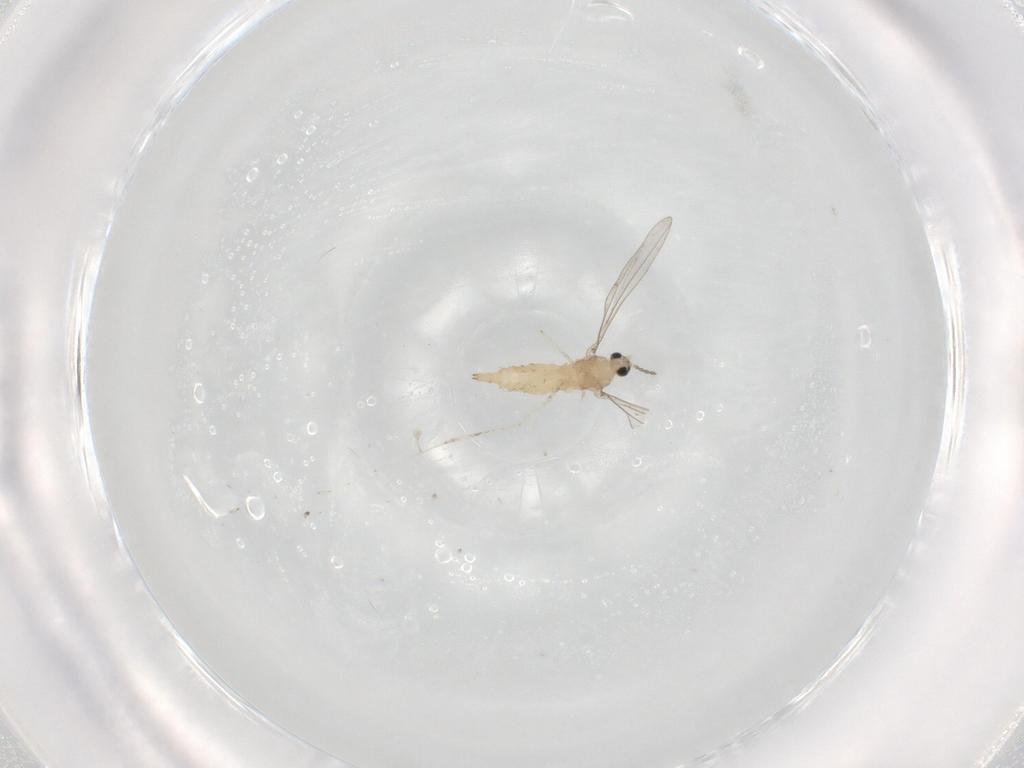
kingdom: Animalia
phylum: Arthropoda
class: Insecta
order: Diptera
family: Cecidomyiidae
